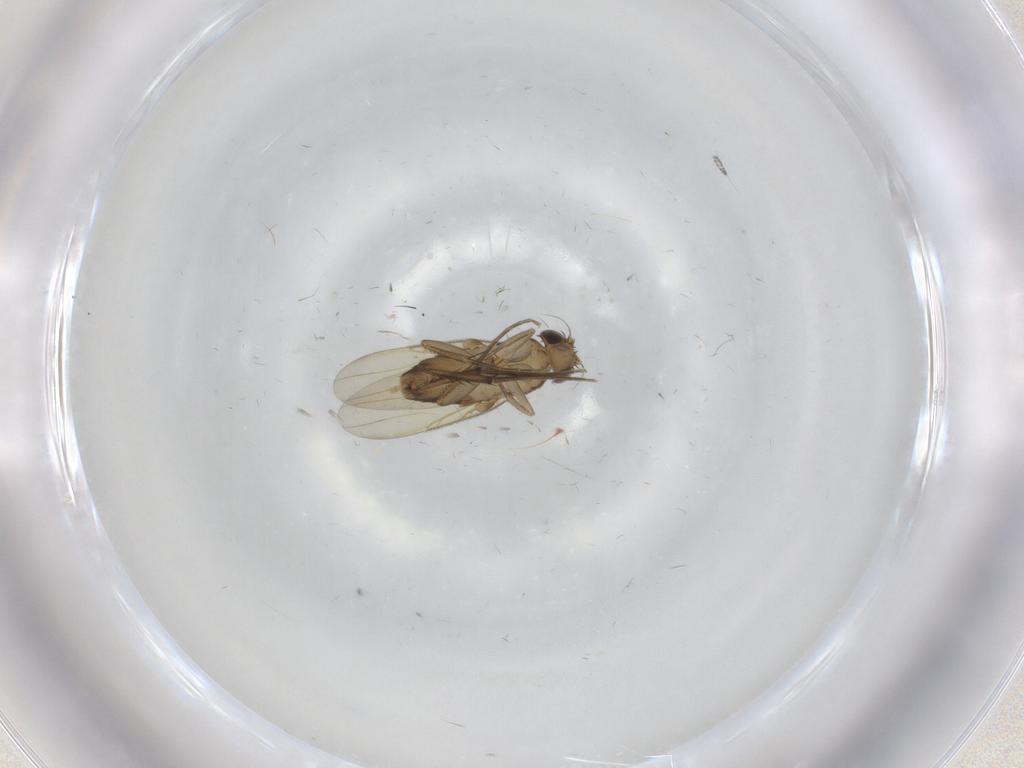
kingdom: Animalia
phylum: Arthropoda
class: Insecta
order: Diptera
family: Phoridae
